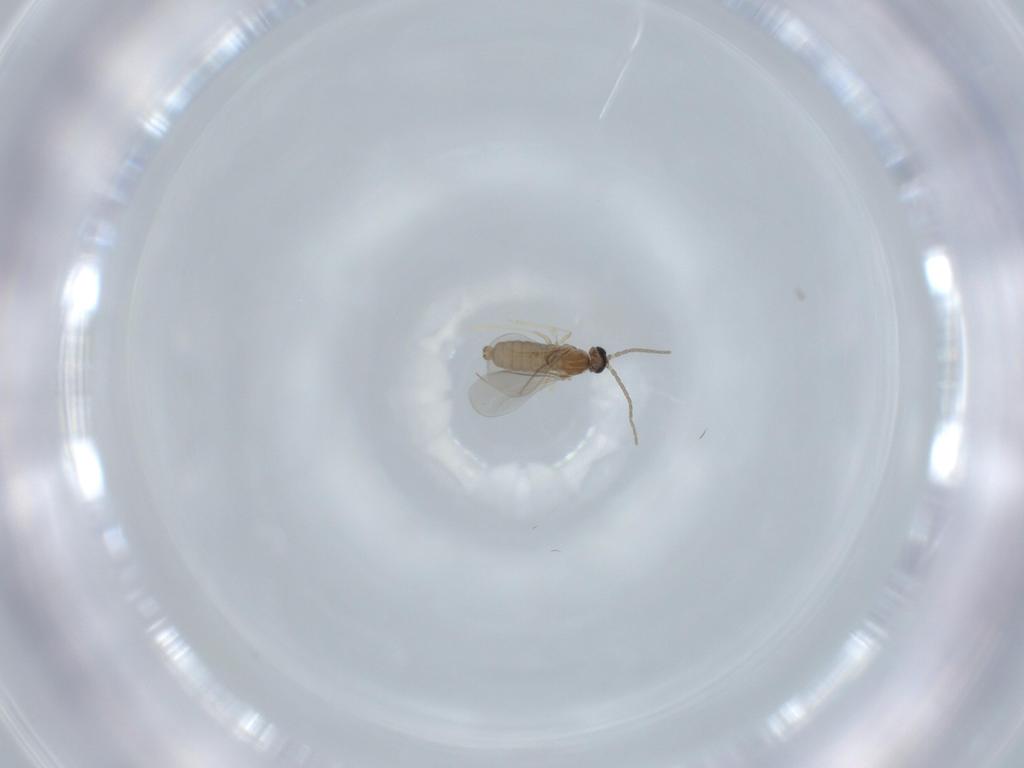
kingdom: Animalia
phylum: Arthropoda
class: Insecta
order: Diptera
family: Cecidomyiidae
